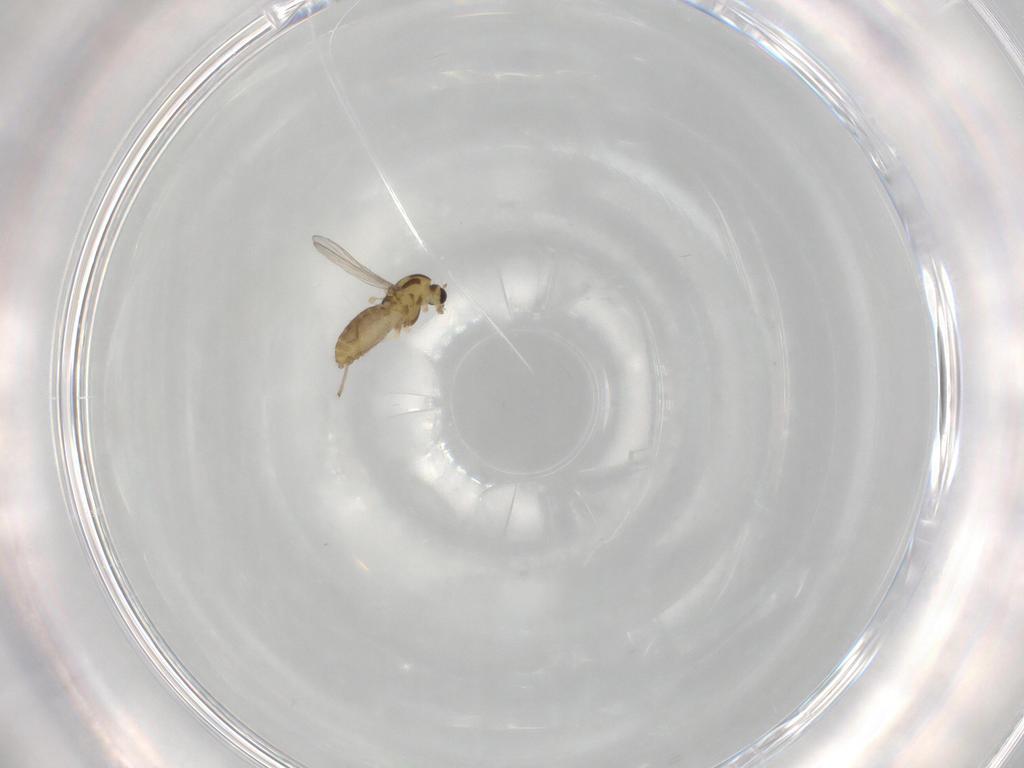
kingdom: Animalia
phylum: Arthropoda
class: Insecta
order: Diptera
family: Chironomidae
